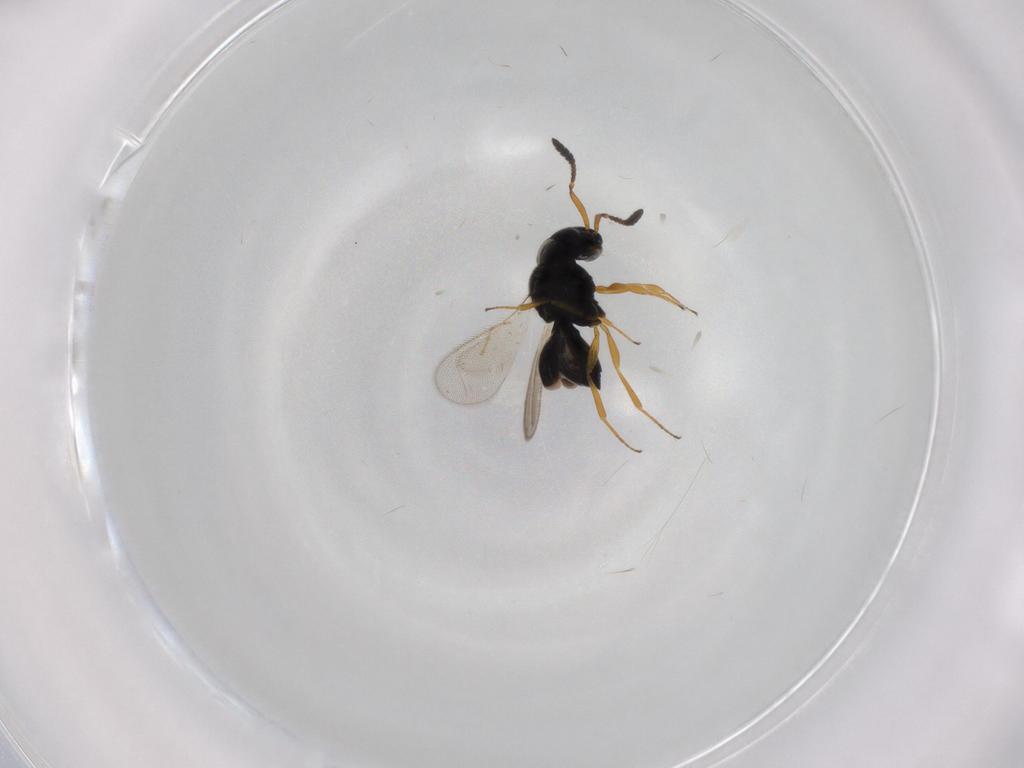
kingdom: Animalia
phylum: Arthropoda
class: Insecta
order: Hymenoptera
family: Scelionidae
